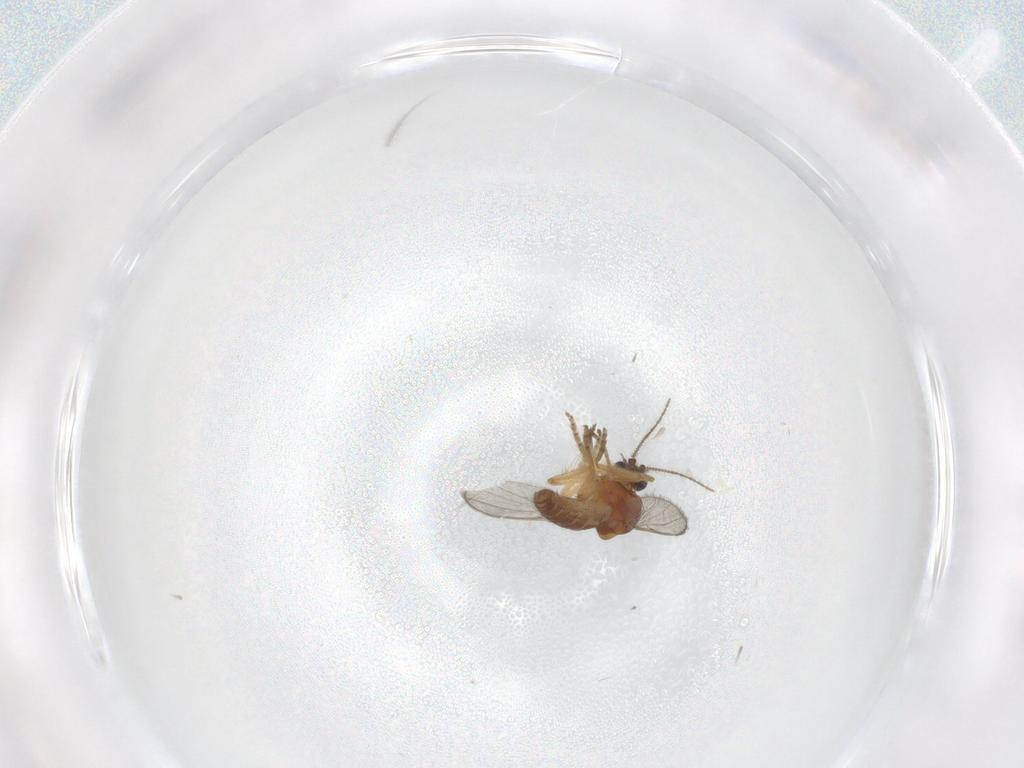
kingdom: Animalia
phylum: Arthropoda
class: Insecta
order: Diptera
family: Ceratopogonidae
